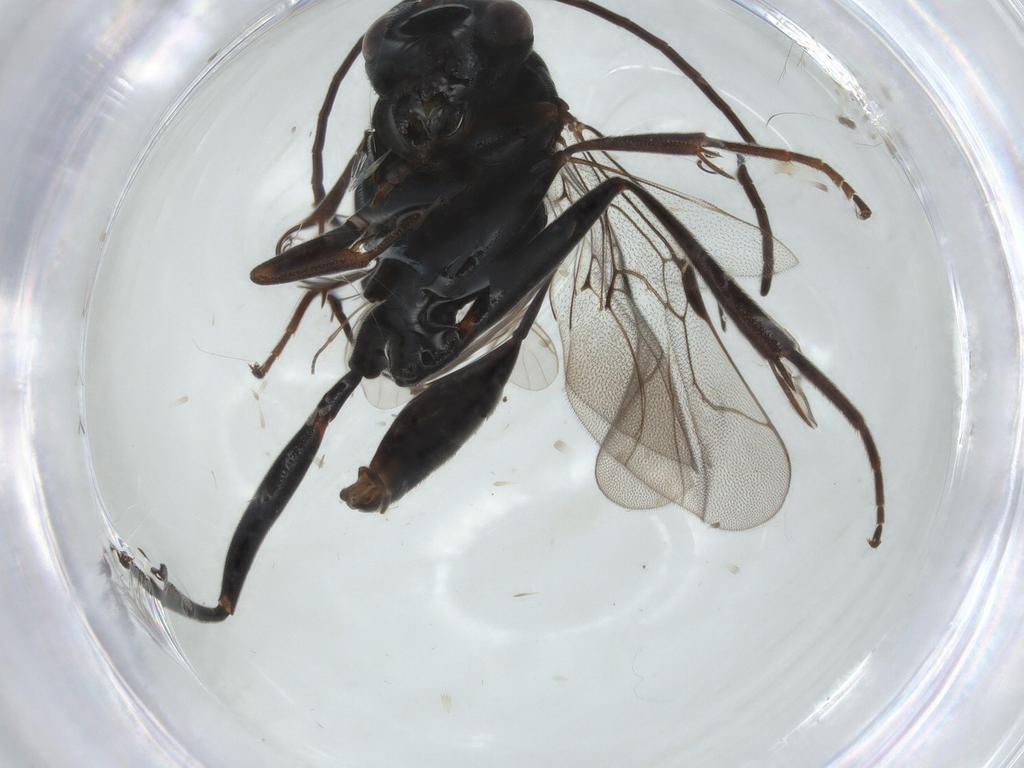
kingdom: Animalia
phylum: Arthropoda
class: Insecta
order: Hymenoptera
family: Evaniidae
